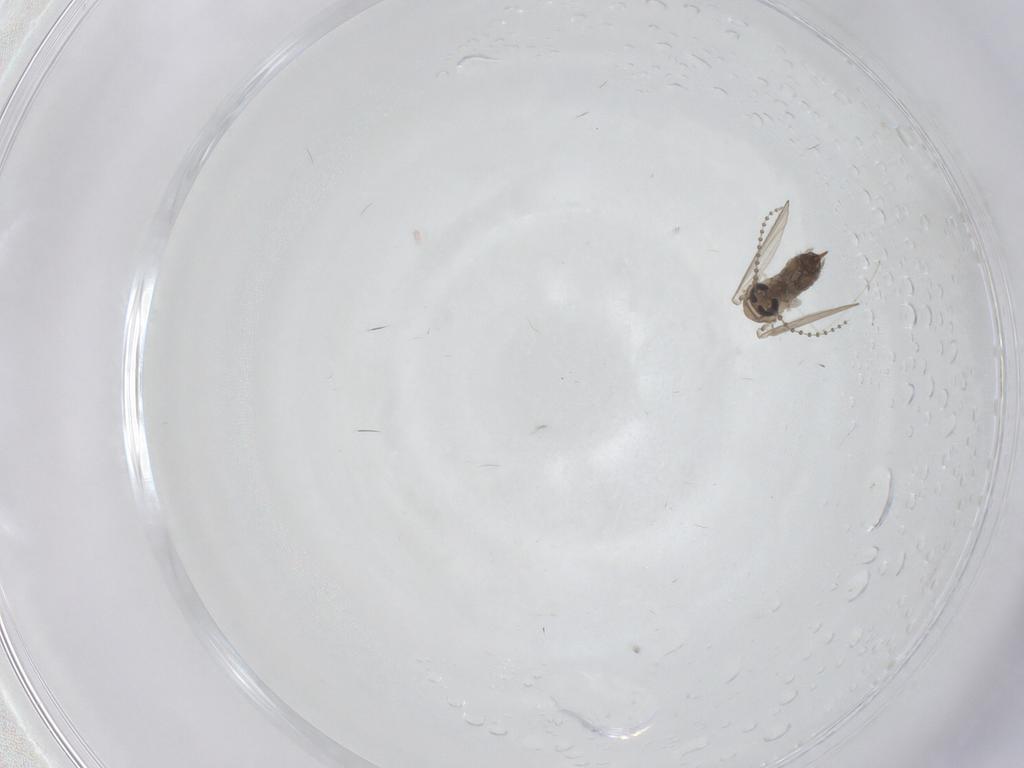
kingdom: Animalia
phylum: Arthropoda
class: Insecta
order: Diptera
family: Psychodidae
